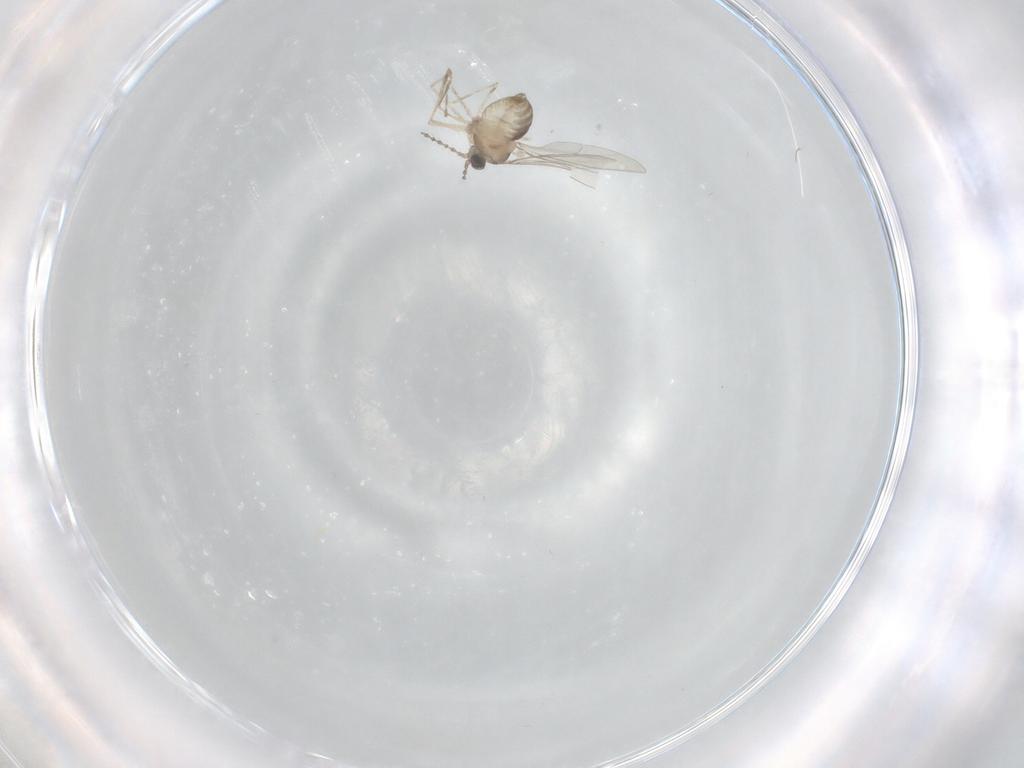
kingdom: Animalia
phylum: Arthropoda
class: Insecta
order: Diptera
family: Cecidomyiidae
